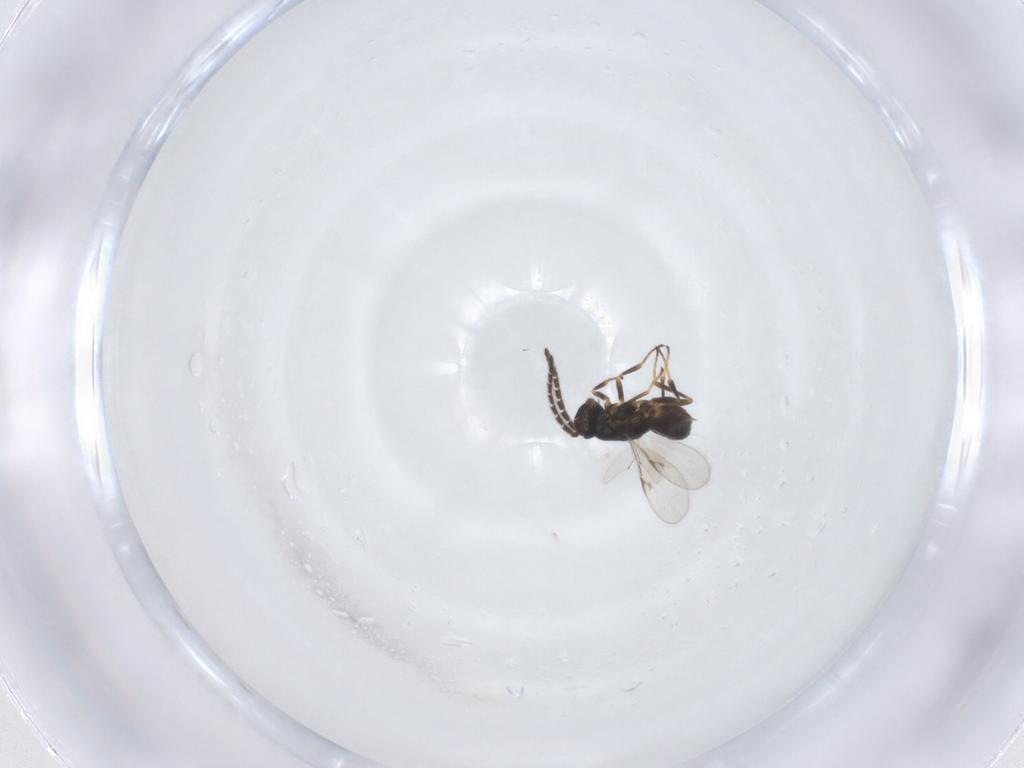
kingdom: Animalia
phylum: Arthropoda
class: Insecta
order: Hymenoptera
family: Encyrtidae
